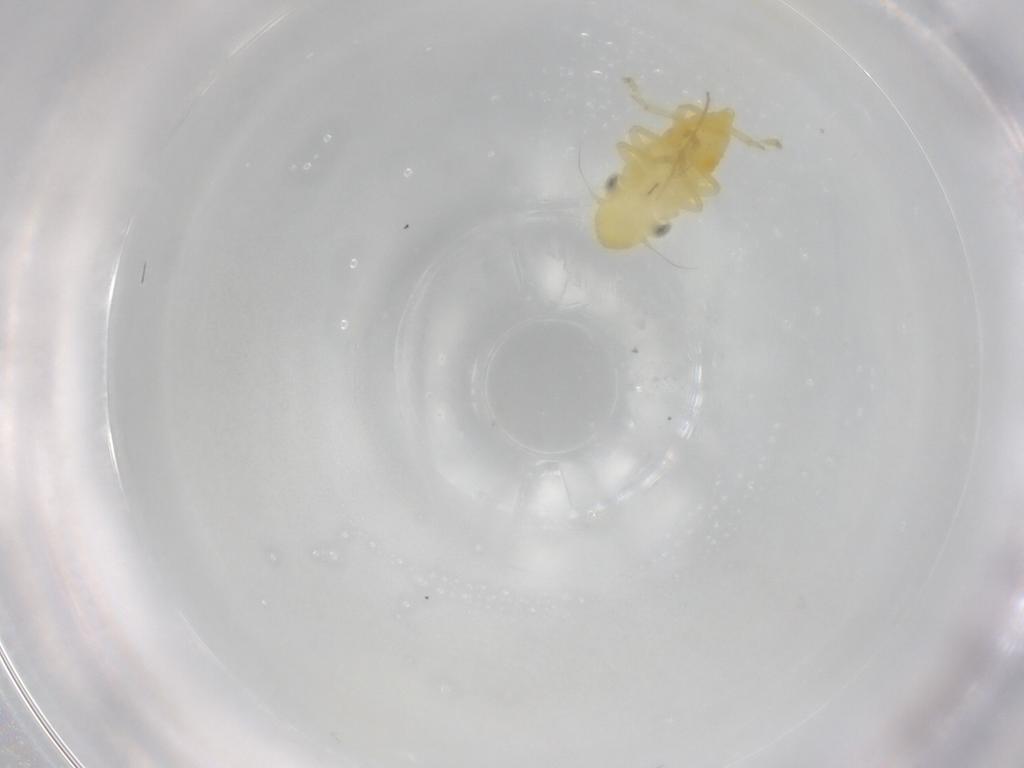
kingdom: Animalia
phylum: Arthropoda
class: Insecta
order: Hemiptera
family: Cicadellidae
